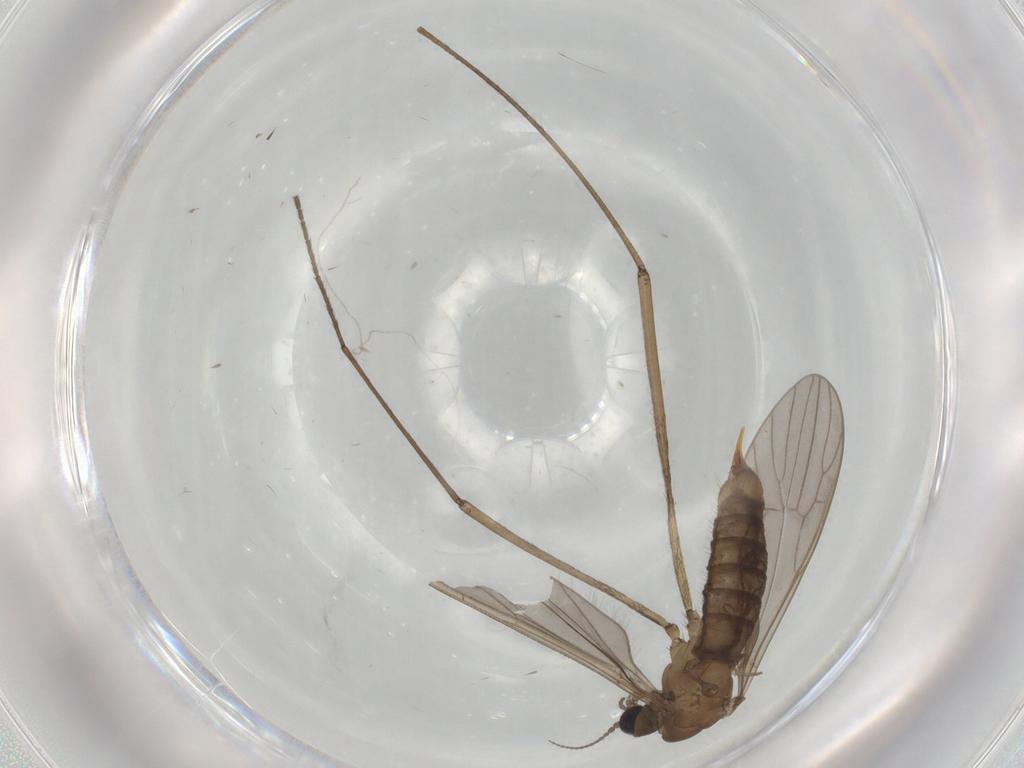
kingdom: Animalia
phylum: Arthropoda
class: Insecta
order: Diptera
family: Limoniidae
